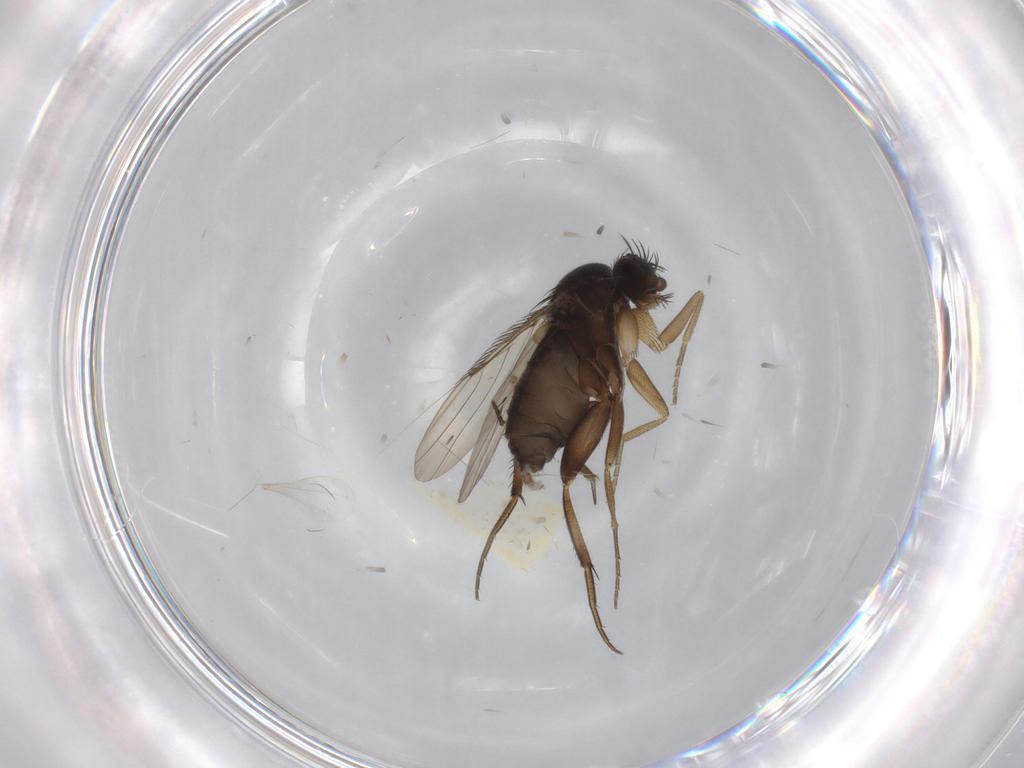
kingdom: Animalia
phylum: Arthropoda
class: Insecta
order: Diptera
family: Phoridae
